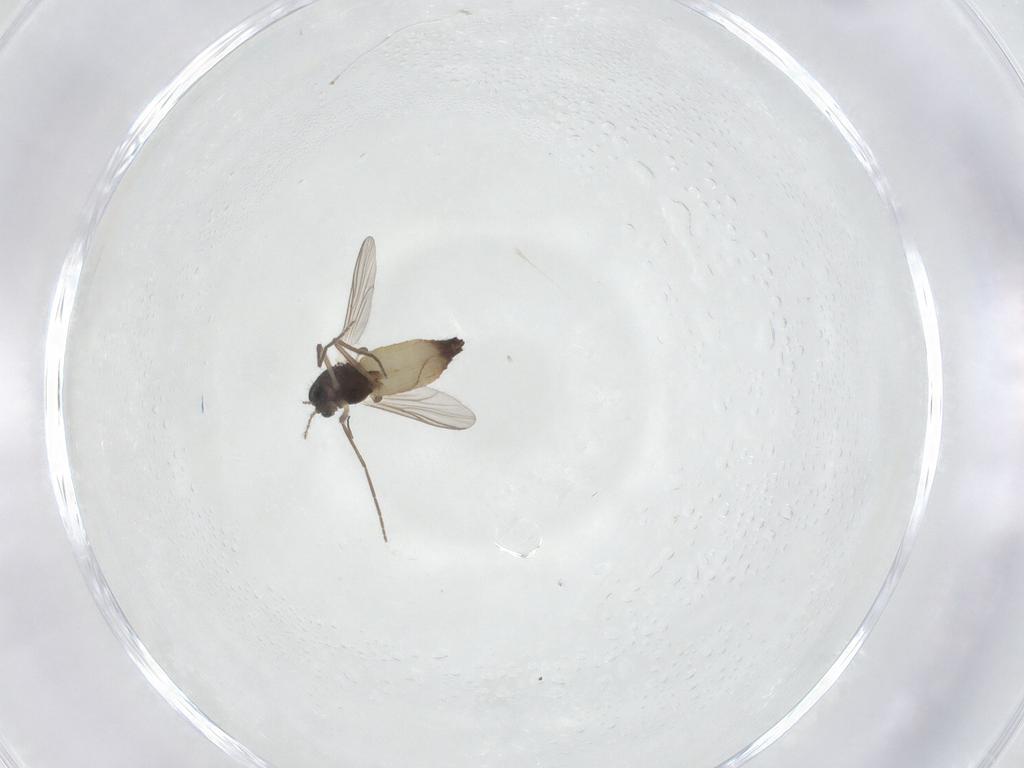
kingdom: Animalia
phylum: Arthropoda
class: Insecta
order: Diptera
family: Chironomidae
